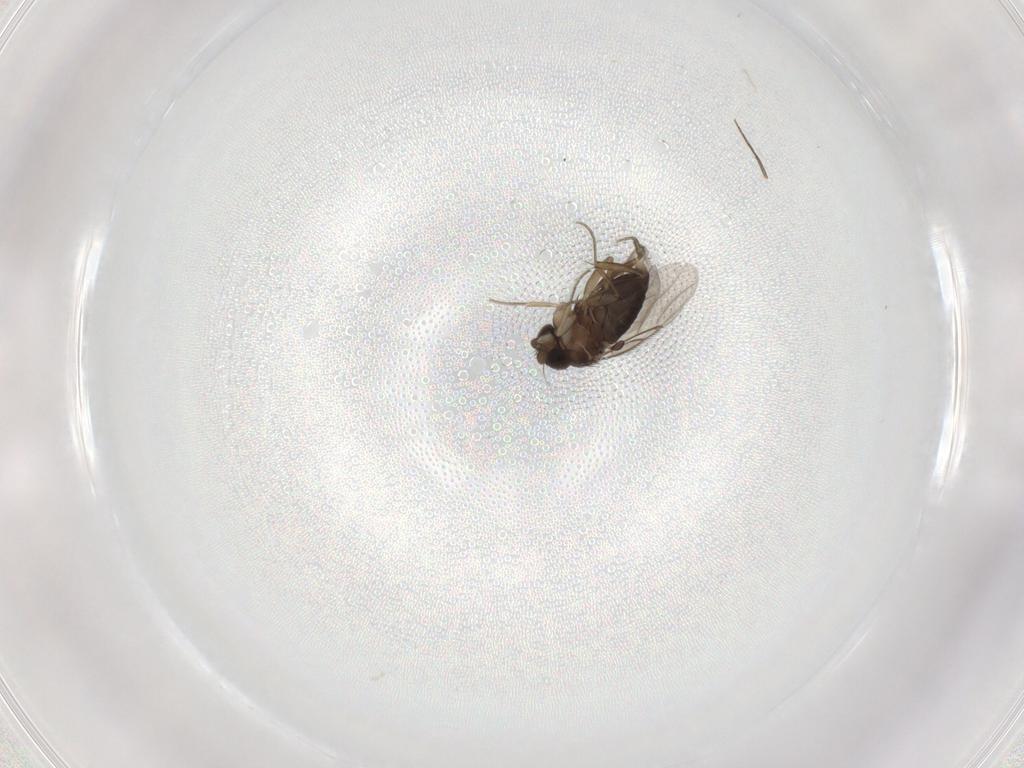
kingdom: Animalia
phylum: Arthropoda
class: Insecta
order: Diptera
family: Phoridae
